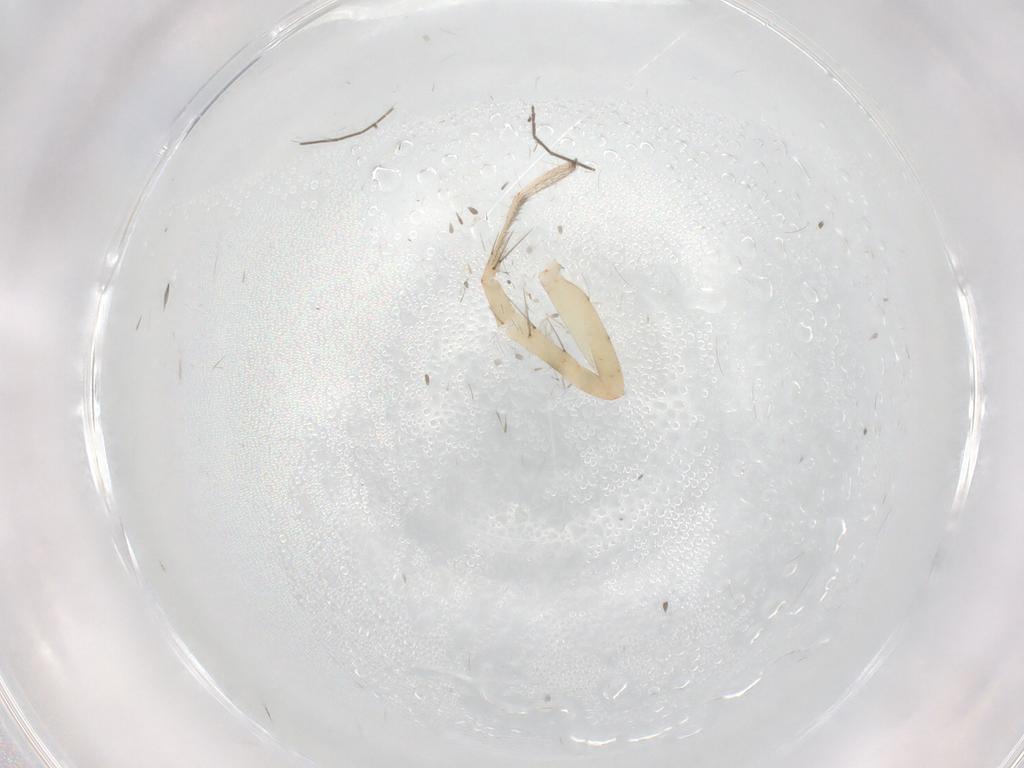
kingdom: Animalia
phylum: Arthropoda
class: Arachnida
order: Araneae
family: Anyphaenidae
